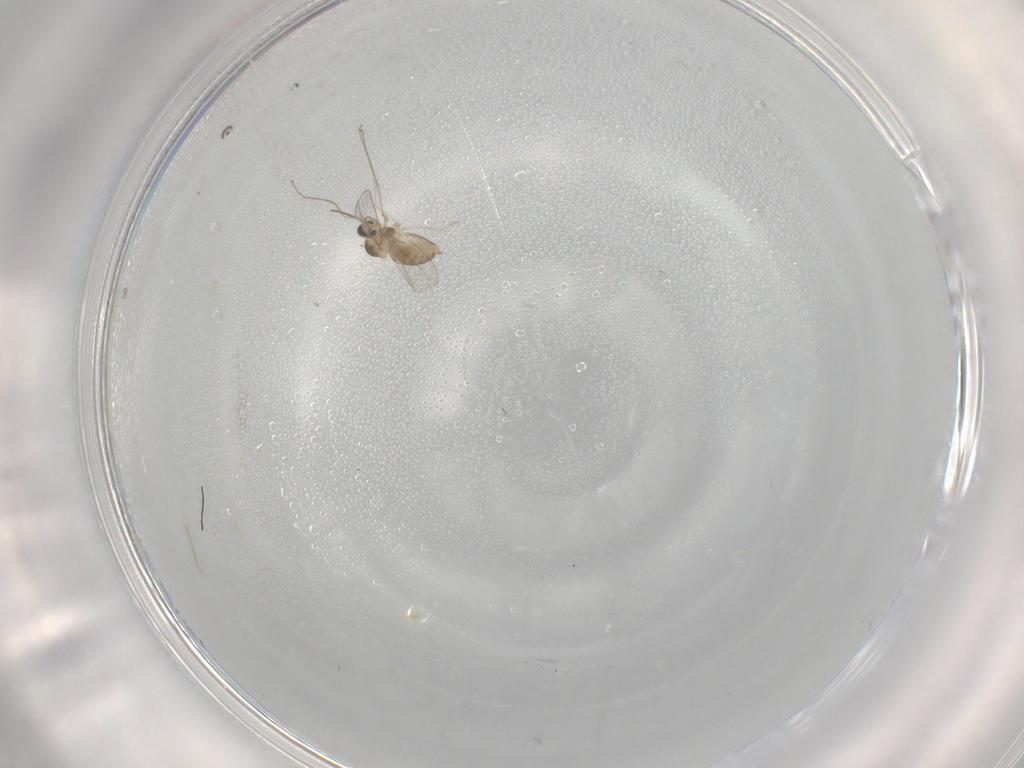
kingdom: Animalia
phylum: Arthropoda
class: Insecta
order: Diptera
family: Cecidomyiidae
